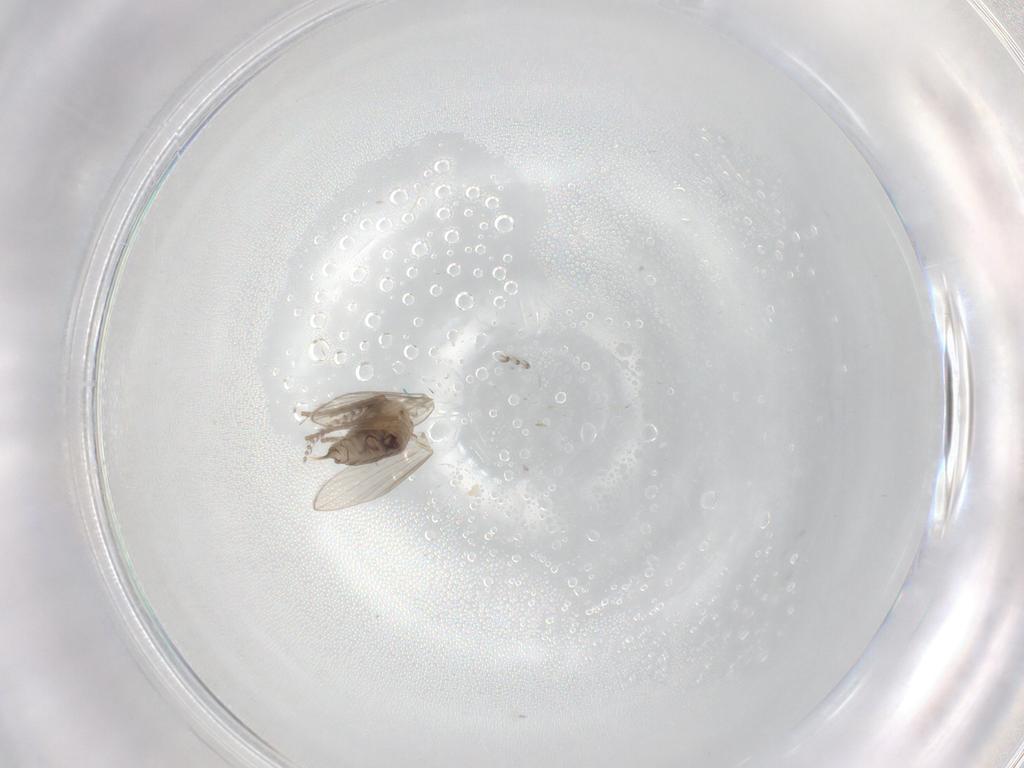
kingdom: Animalia
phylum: Arthropoda
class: Insecta
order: Diptera
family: Psychodidae
